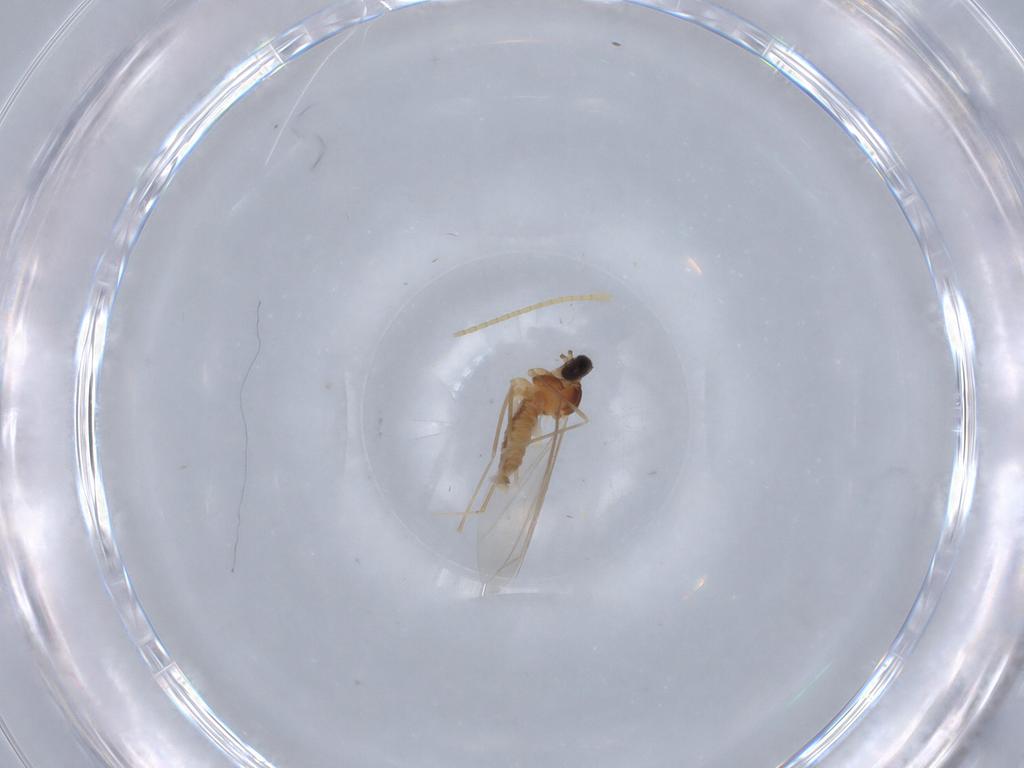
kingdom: Animalia
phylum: Arthropoda
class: Insecta
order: Diptera
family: Cecidomyiidae
